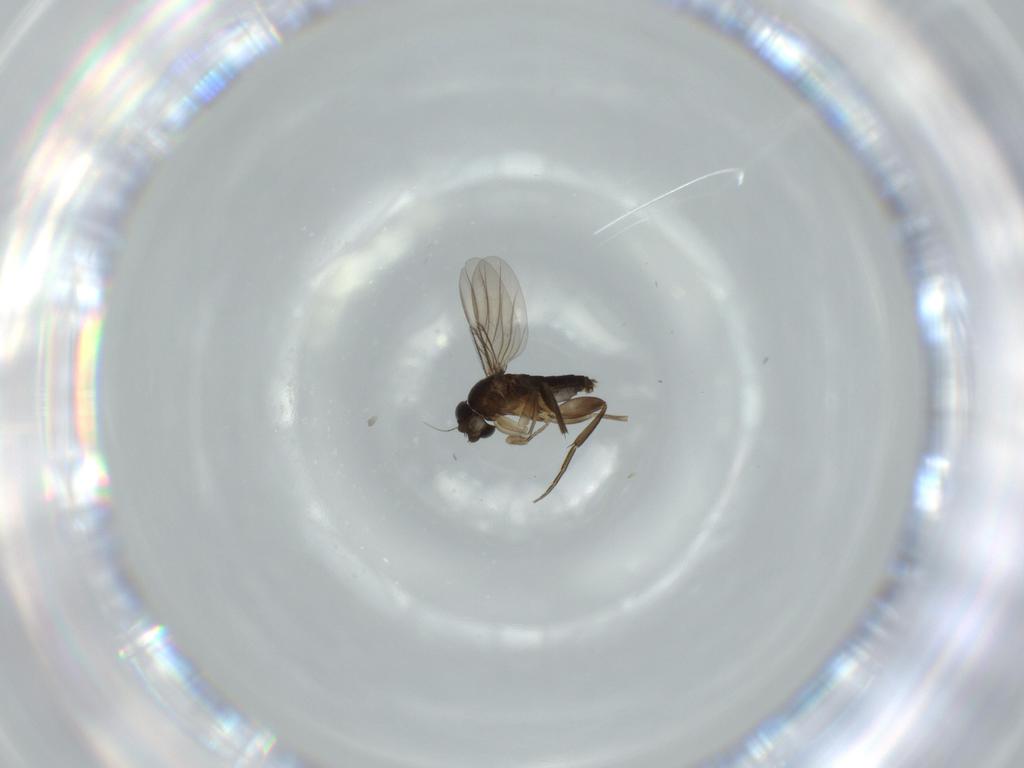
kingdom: Animalia
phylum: Arthropoda
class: Insecta
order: Diptera
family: Phoridae
